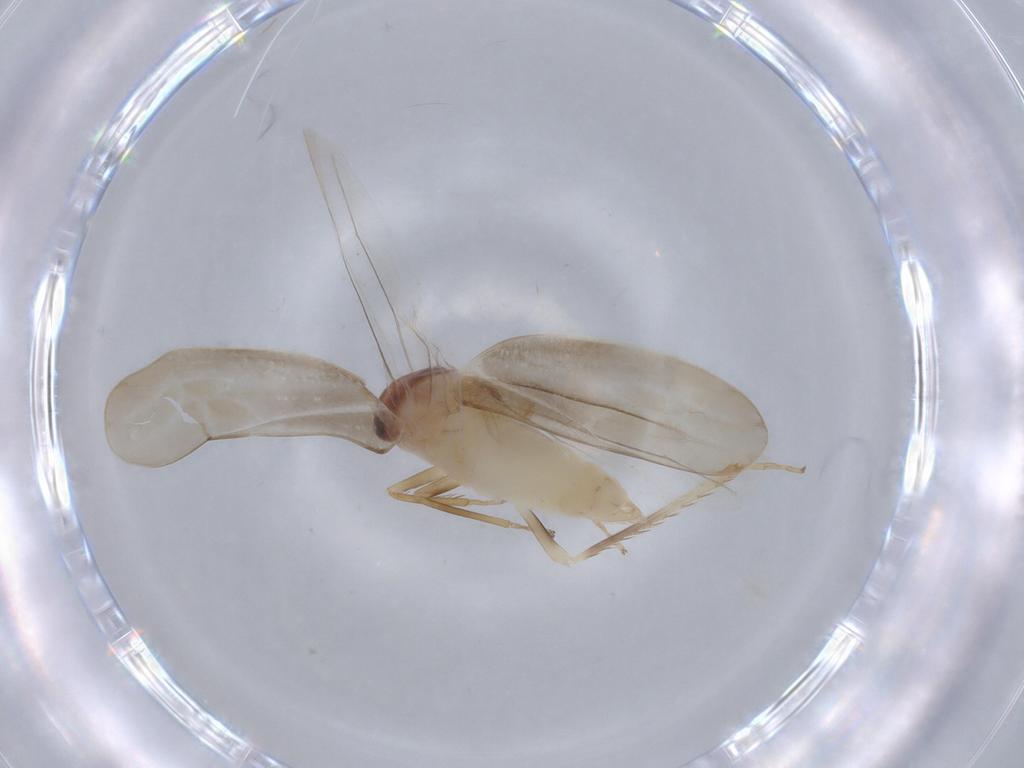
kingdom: Animalia
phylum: Arthropoda
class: Insecta
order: Hemiptera
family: Cicadellidae
